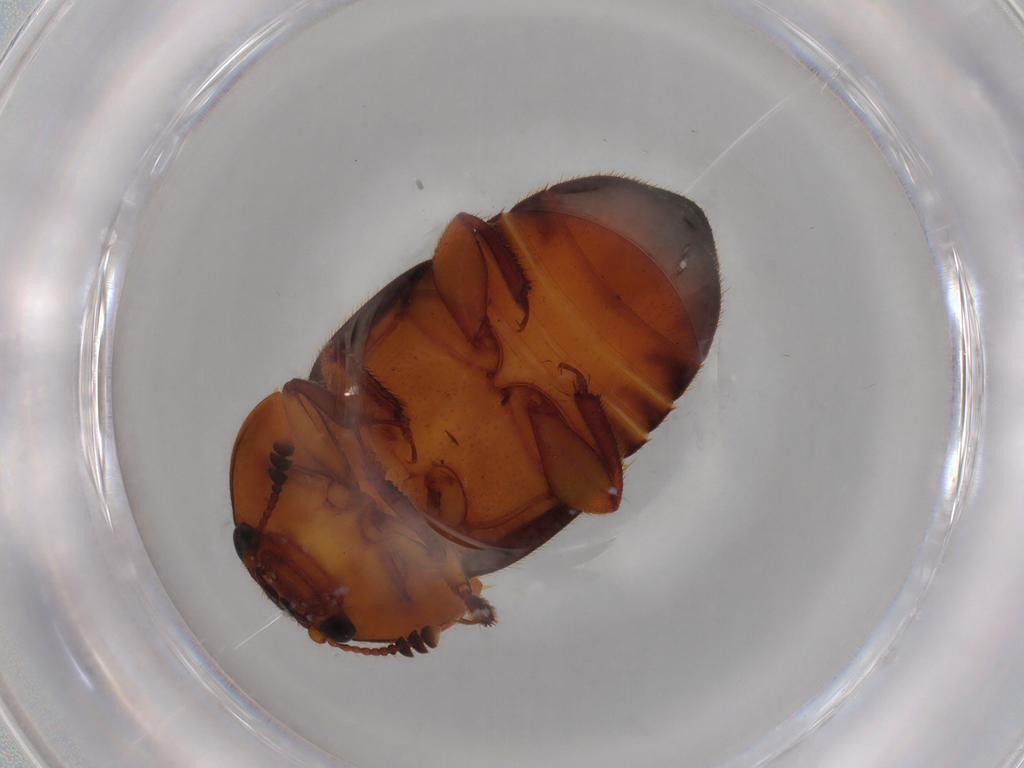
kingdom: Animalia
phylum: Arthropoda
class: Insecta
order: Coleoptera
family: Nitidulidae
